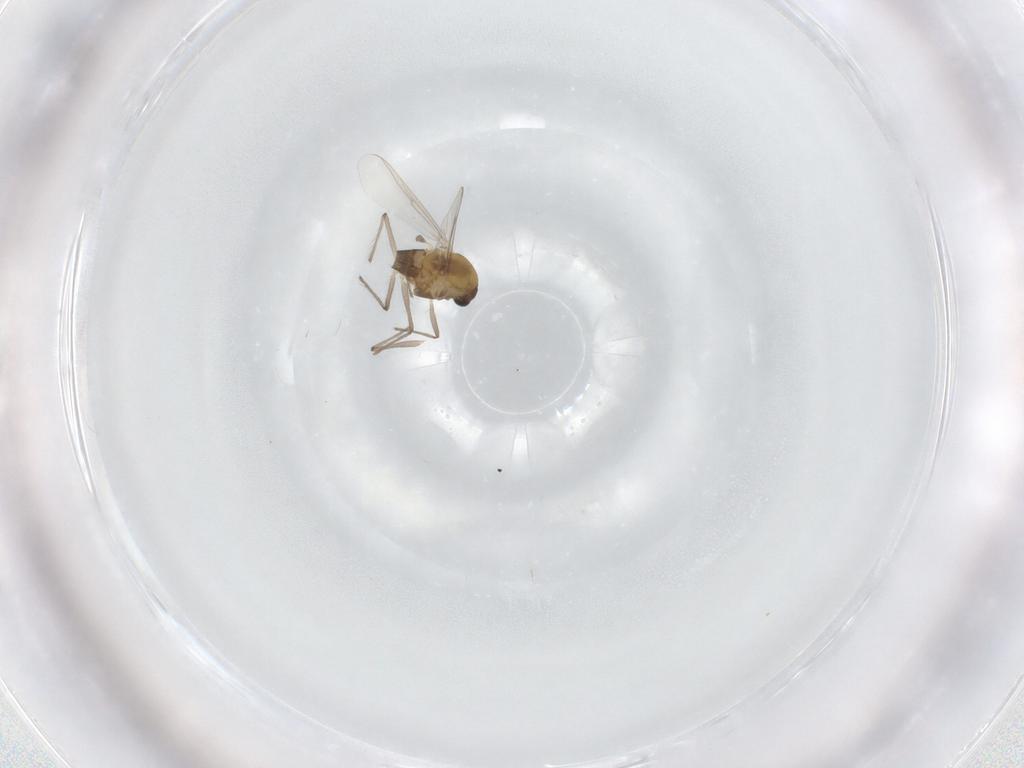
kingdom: Animalia
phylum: Arthropoda
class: Insecta
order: Diptera
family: Chironomidae
